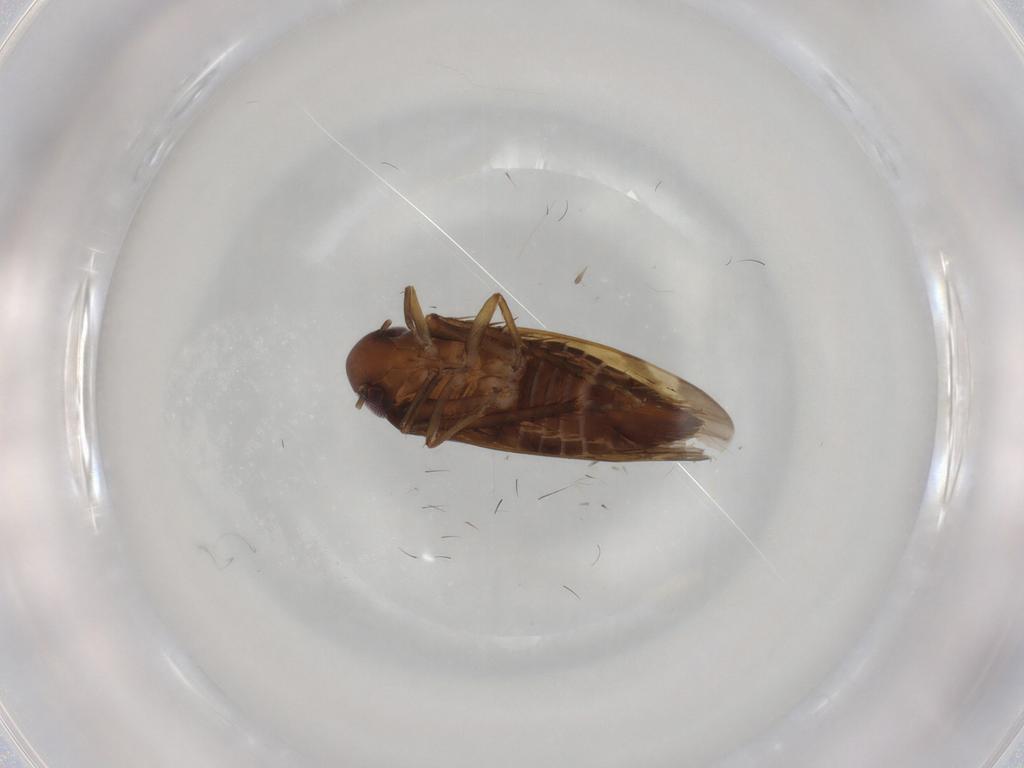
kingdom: Animalia
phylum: Arthropoda
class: Insecta
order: Hemiptera
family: Cicadellidae
